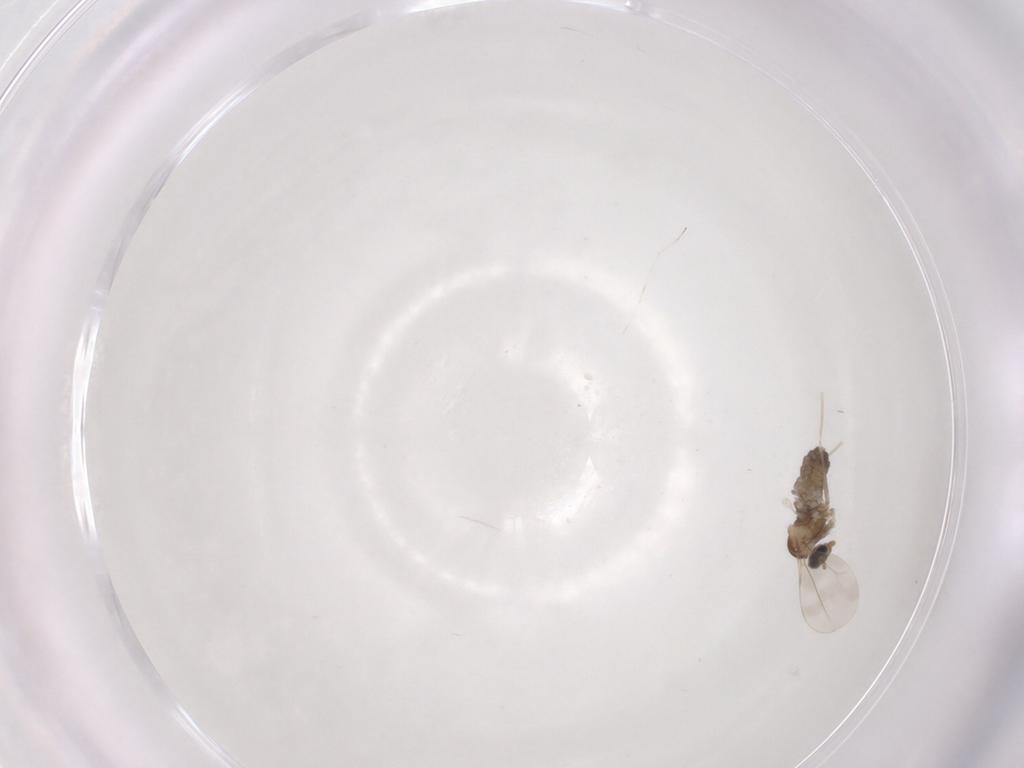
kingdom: Animalia
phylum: Arthropoda
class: Insecta
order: Diptera
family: Cecidomyiidae
